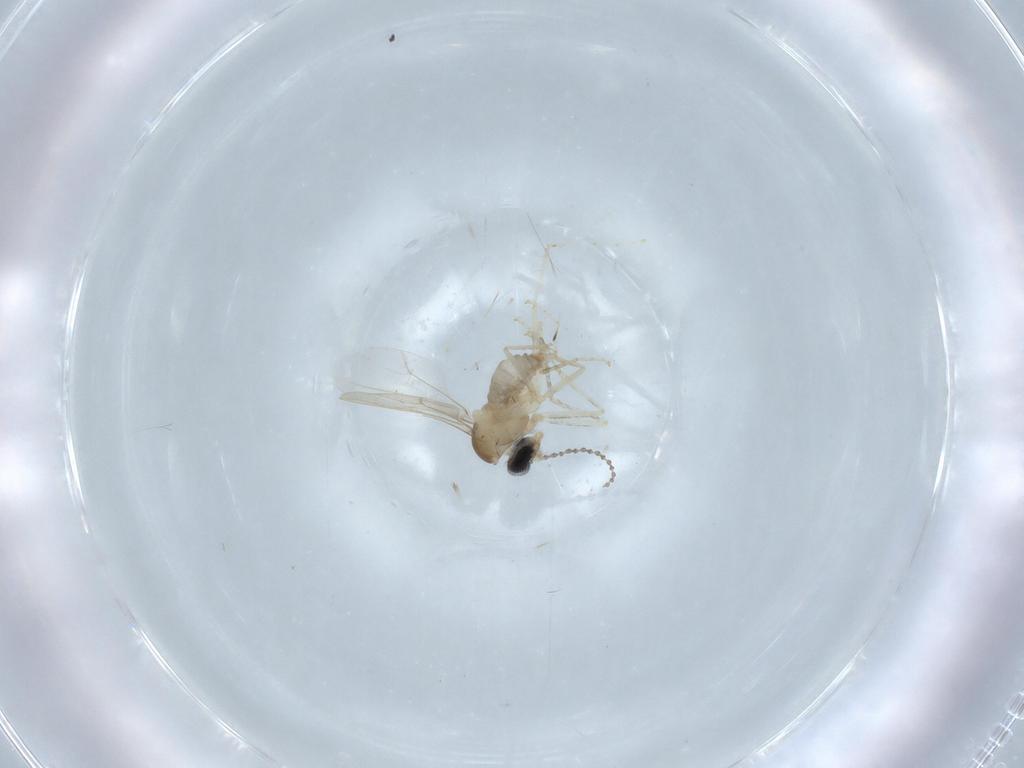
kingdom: Animalia
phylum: Arthropoda
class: Insecta
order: Diptera
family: Cecidomyiidae
